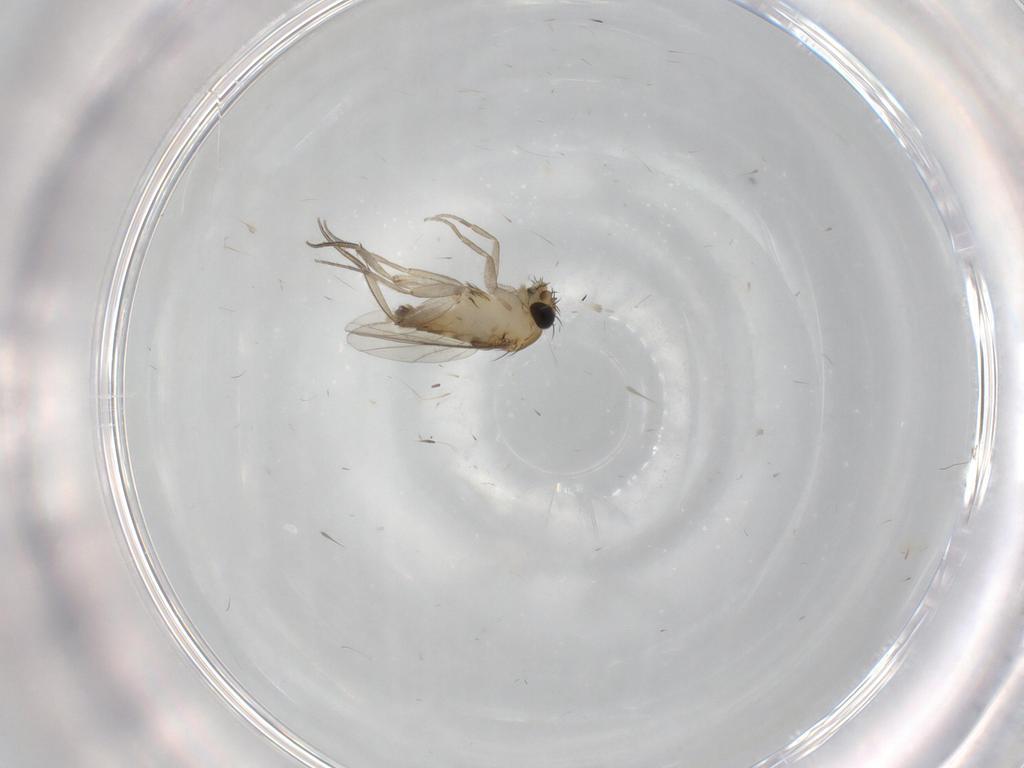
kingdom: Animalia
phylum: Arthropoda
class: Insecta
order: Diptera
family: Phoridae
